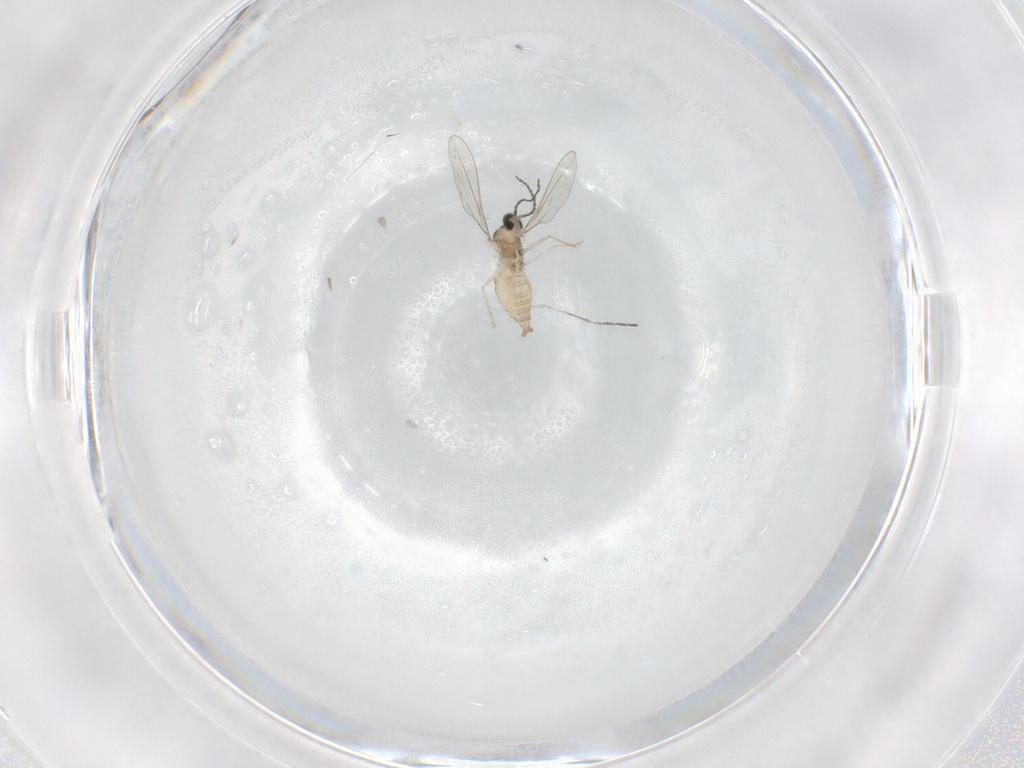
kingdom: Animalia
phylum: Arthropoda
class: Insecta
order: Diptera
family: Cecidomyiidae
